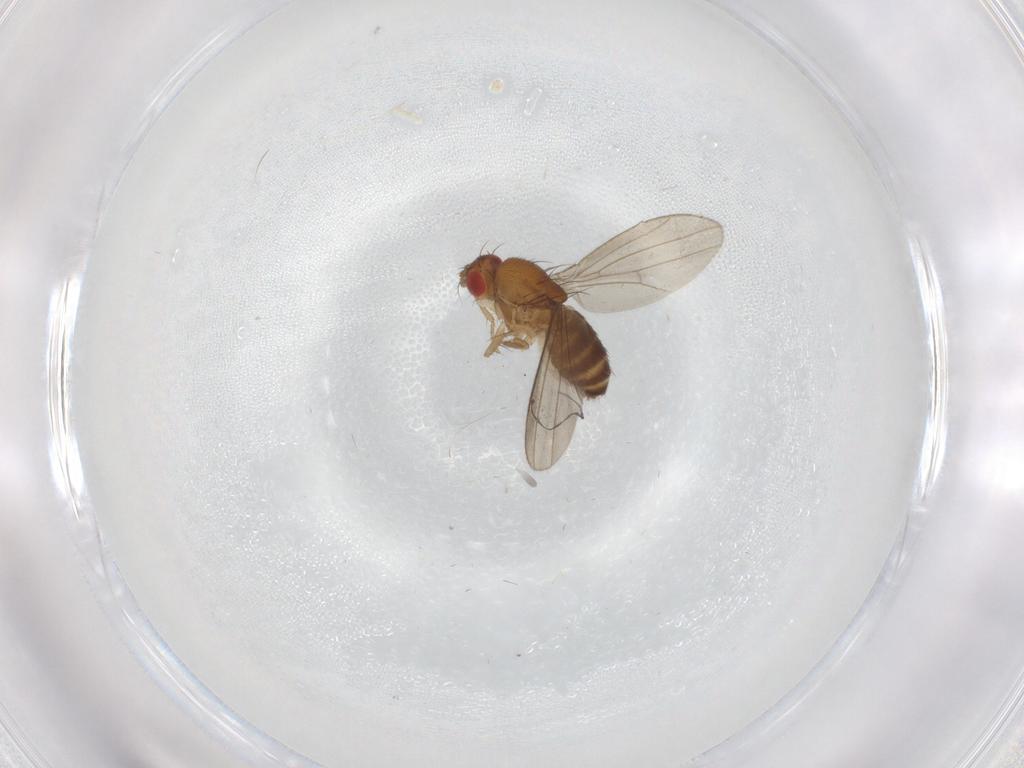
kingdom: Animalia
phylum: Arthropoda
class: Insecta
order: Diptera
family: Drosophilidae
